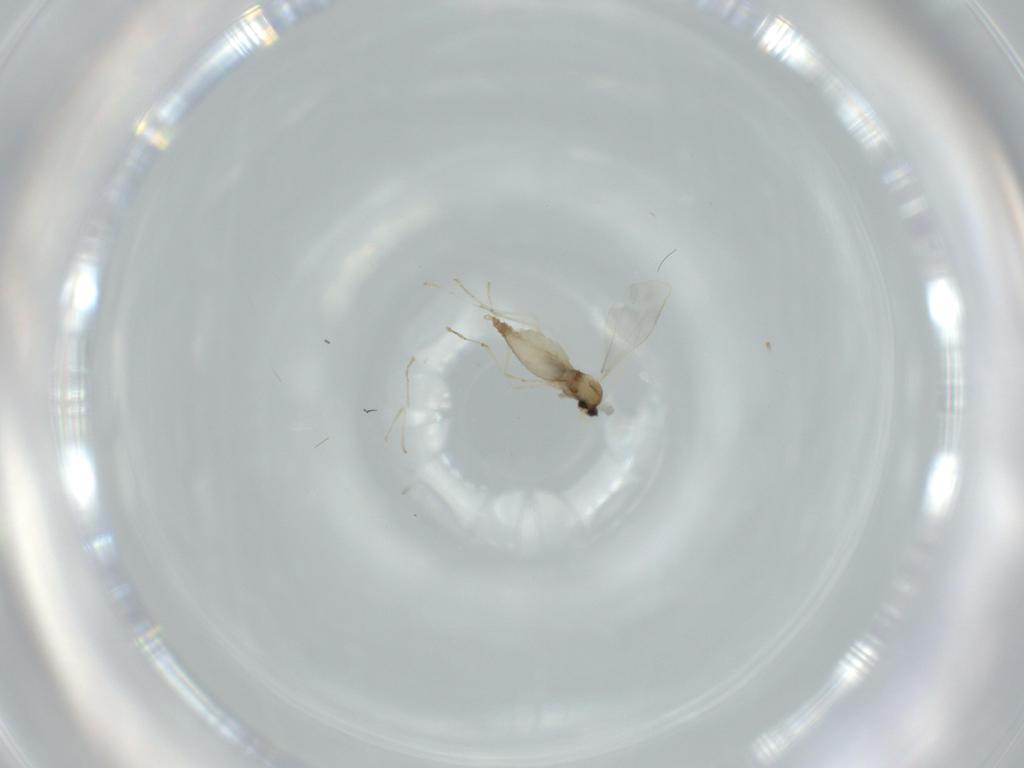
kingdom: Animalia
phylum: Arthropoda
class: Insecta
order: Diptera
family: Cecidomyiidae
